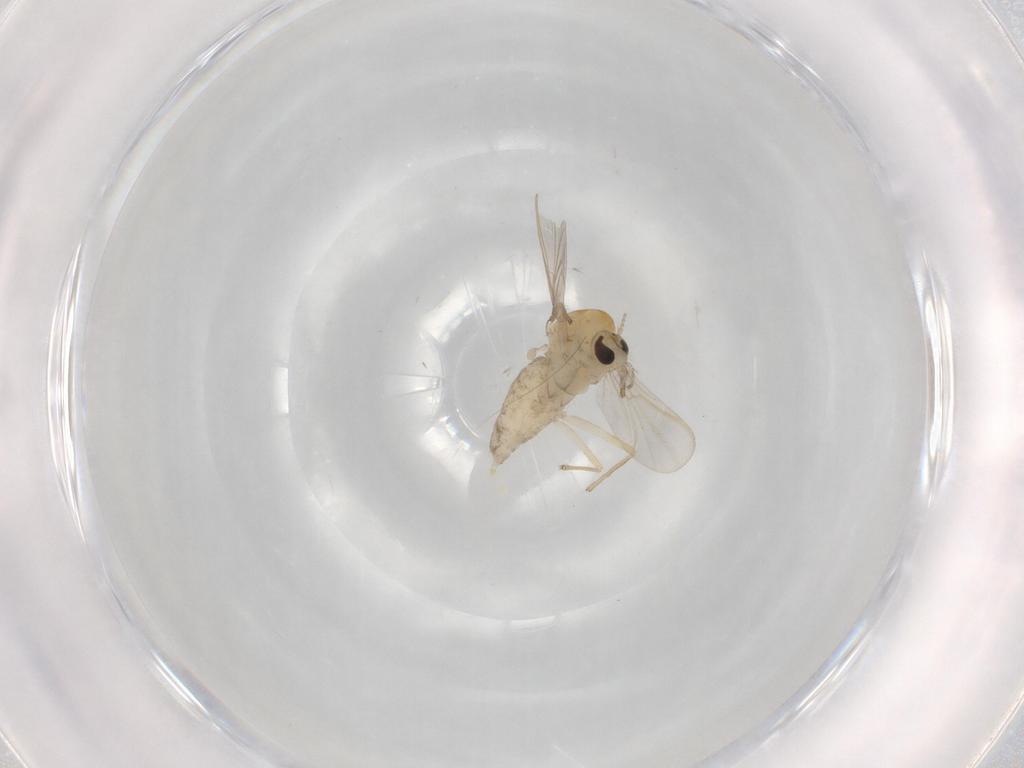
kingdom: Animalia
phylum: Arthropoda
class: Insecta
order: Diptera
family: Chironomidae
